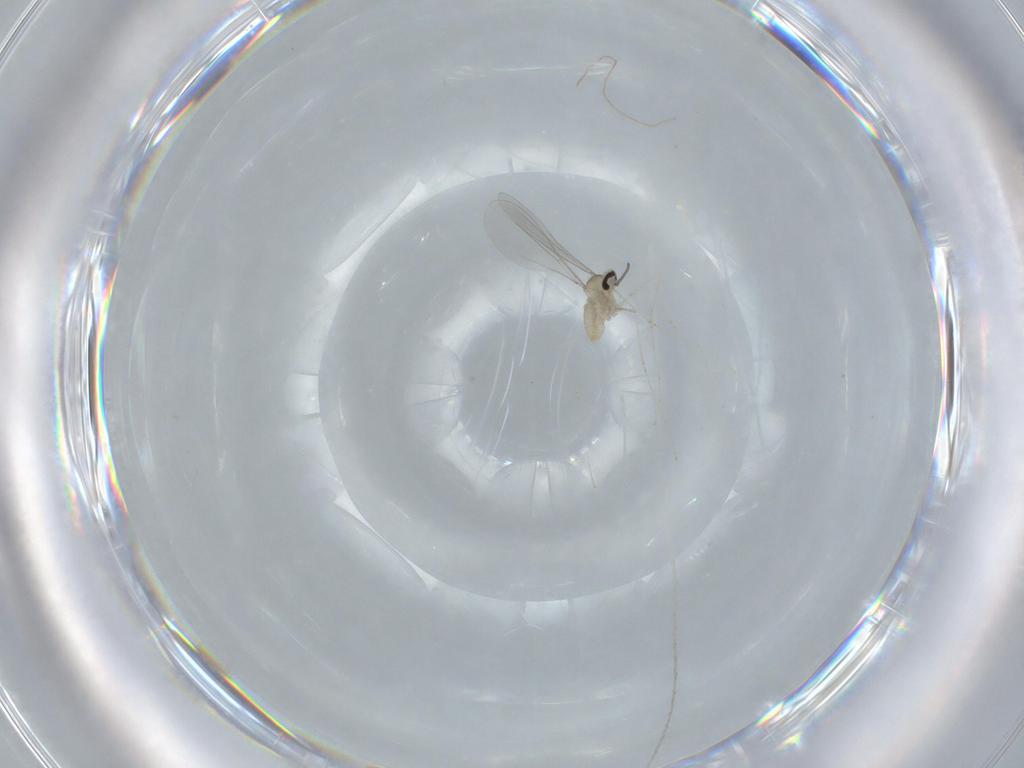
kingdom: Animalia
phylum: Arthropoda
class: Insecta
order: Diptera
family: Cecidomyiidae
